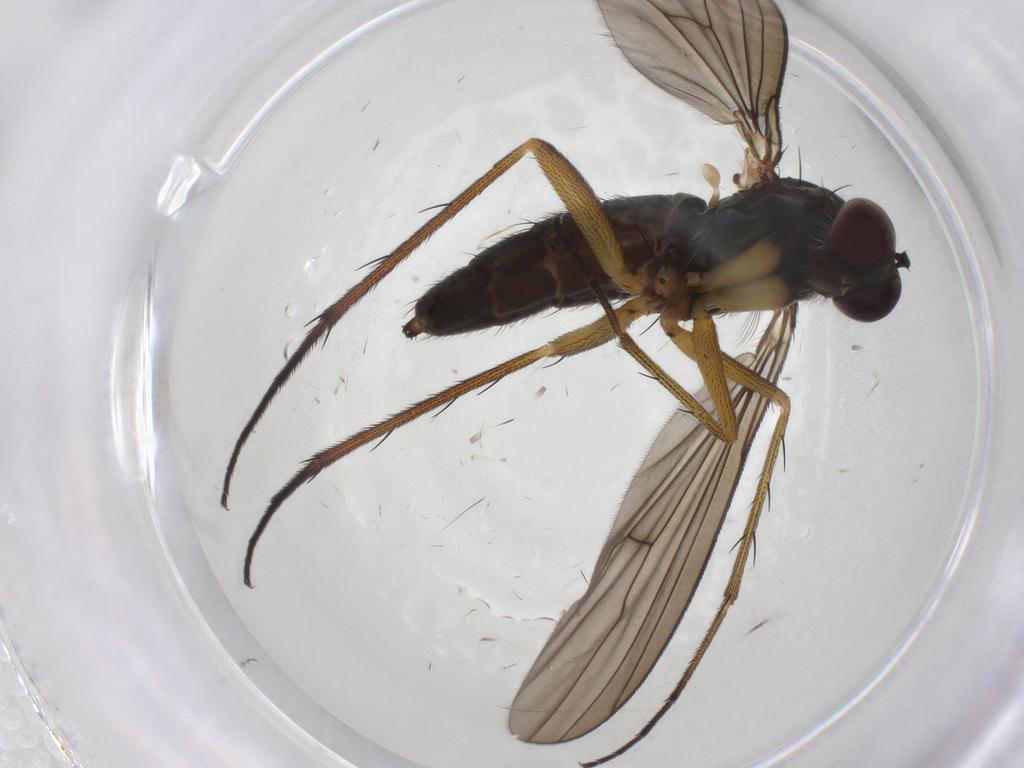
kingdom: Animalia
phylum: Arthropoda
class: Insecta
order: Diptera
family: Dolichopodidae
